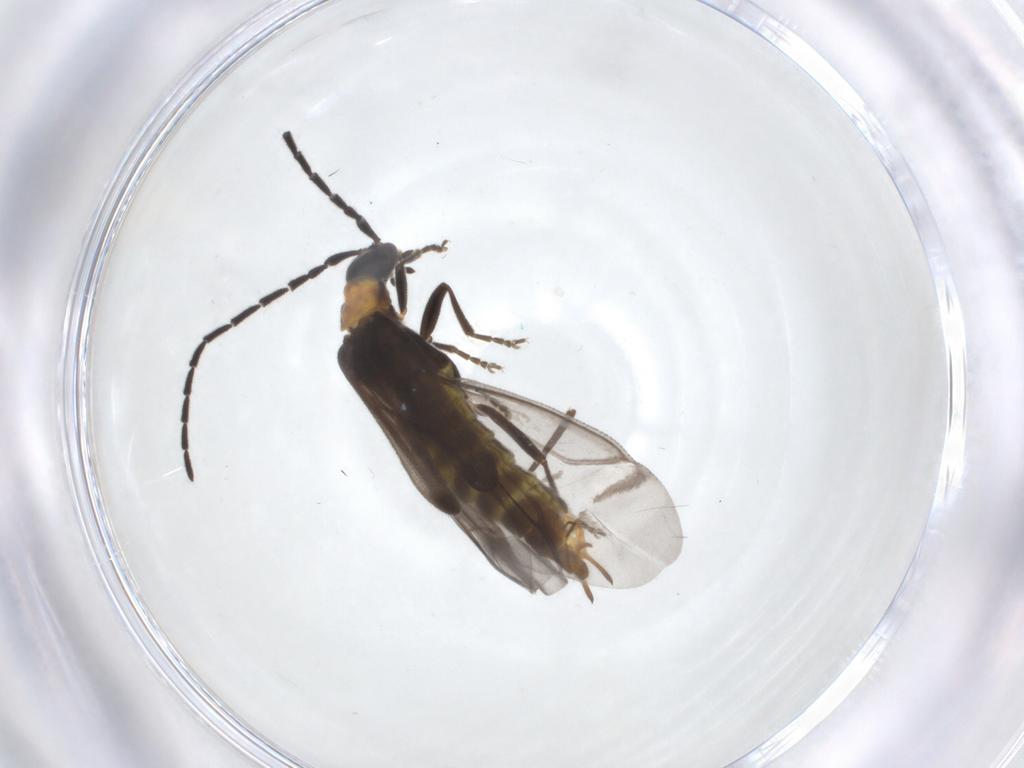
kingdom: Animalia
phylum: Arthropoda
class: Insecta
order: Coleoptera
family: Cantharidae
